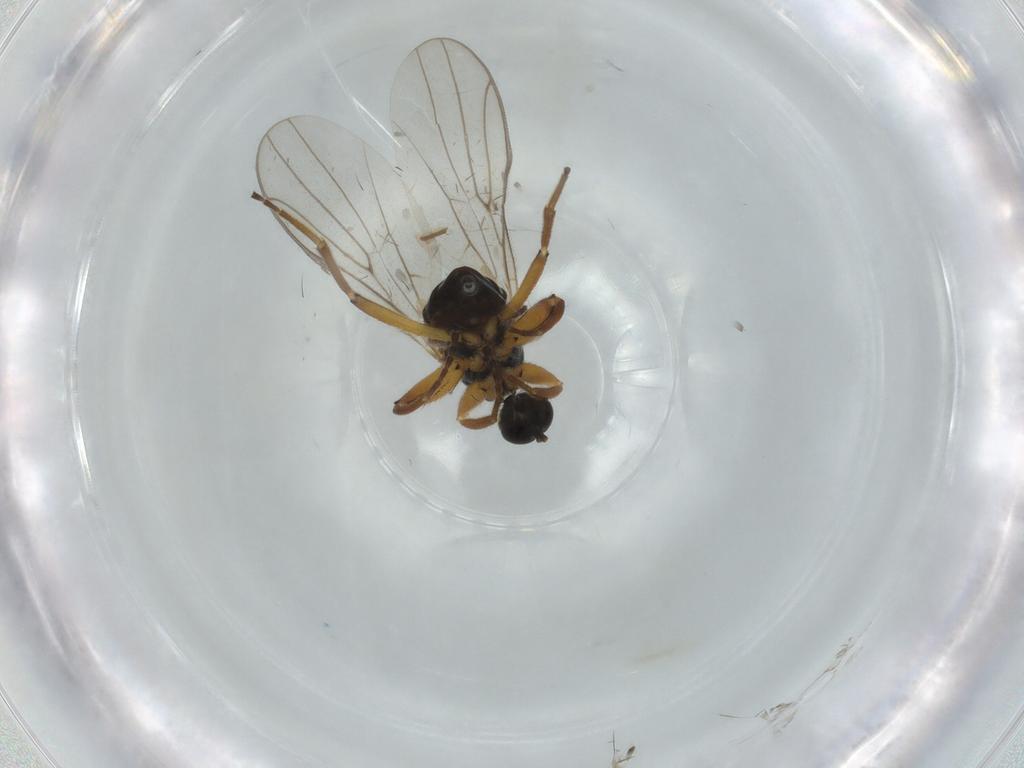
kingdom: Animalia
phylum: Arthropoda
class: Insecta
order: Diptera
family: Hybotidae
